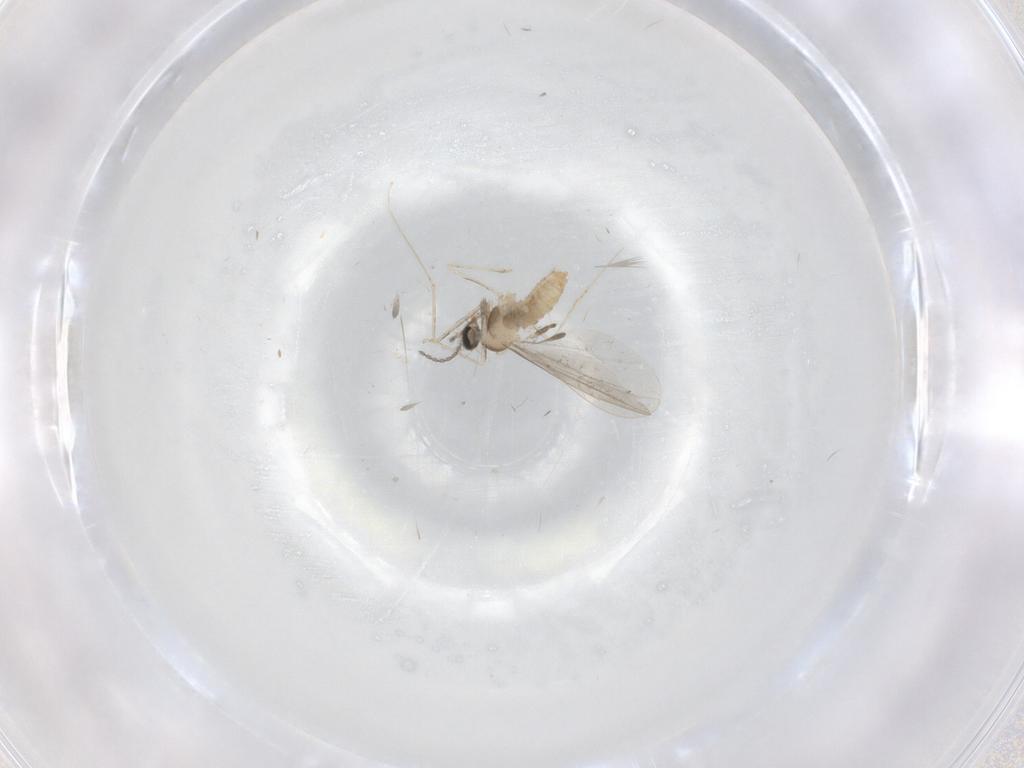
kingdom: Animalia
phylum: Arthropoda
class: Insecta
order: Diptera
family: Cecidomyiidae
